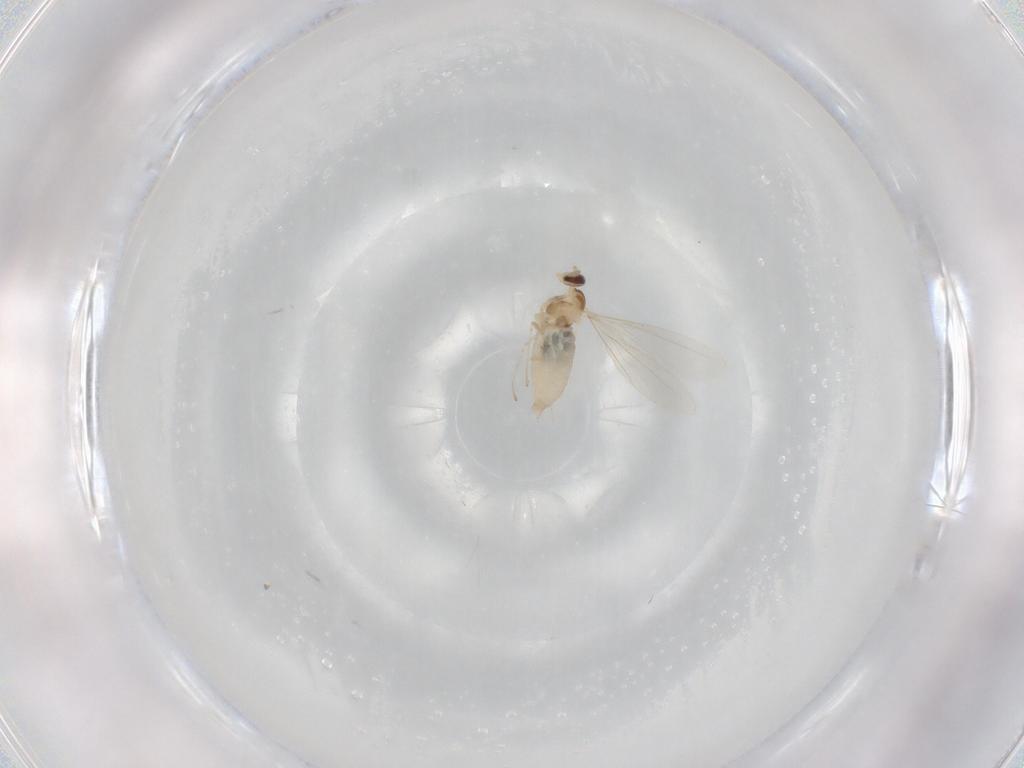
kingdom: Animalia
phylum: Arthropoda
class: Insecta
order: Diptera
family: Cecidomyiidae
